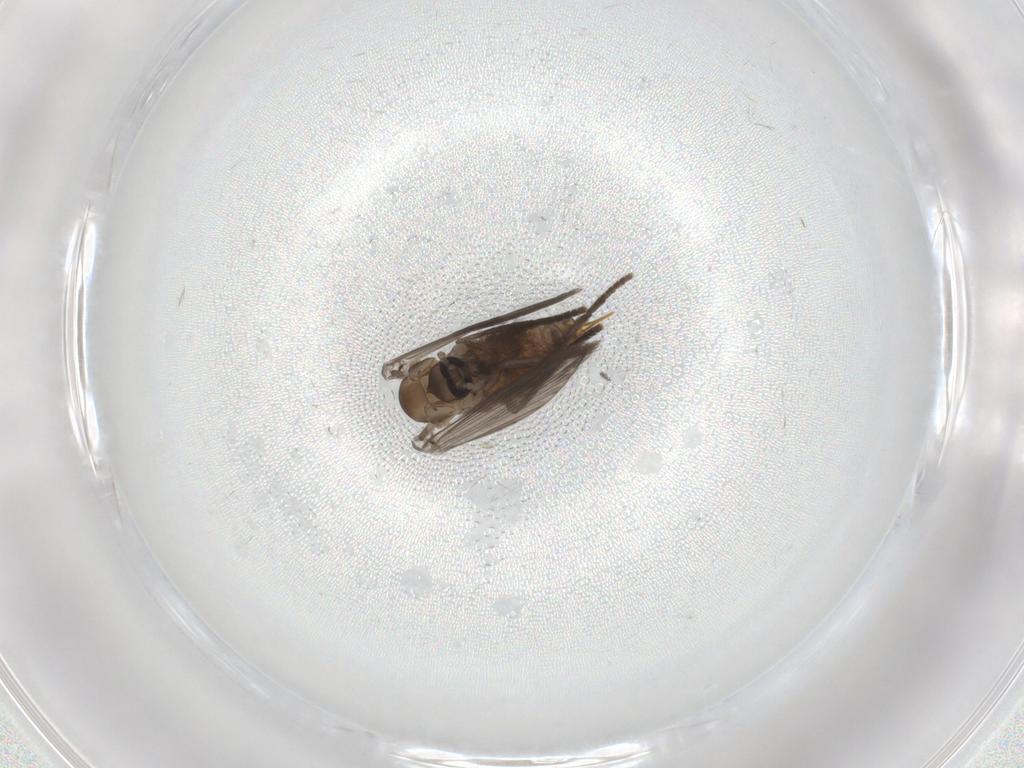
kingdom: Animalia
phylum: Arthropoda
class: Insecta
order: Diptera
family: Psychodidae
